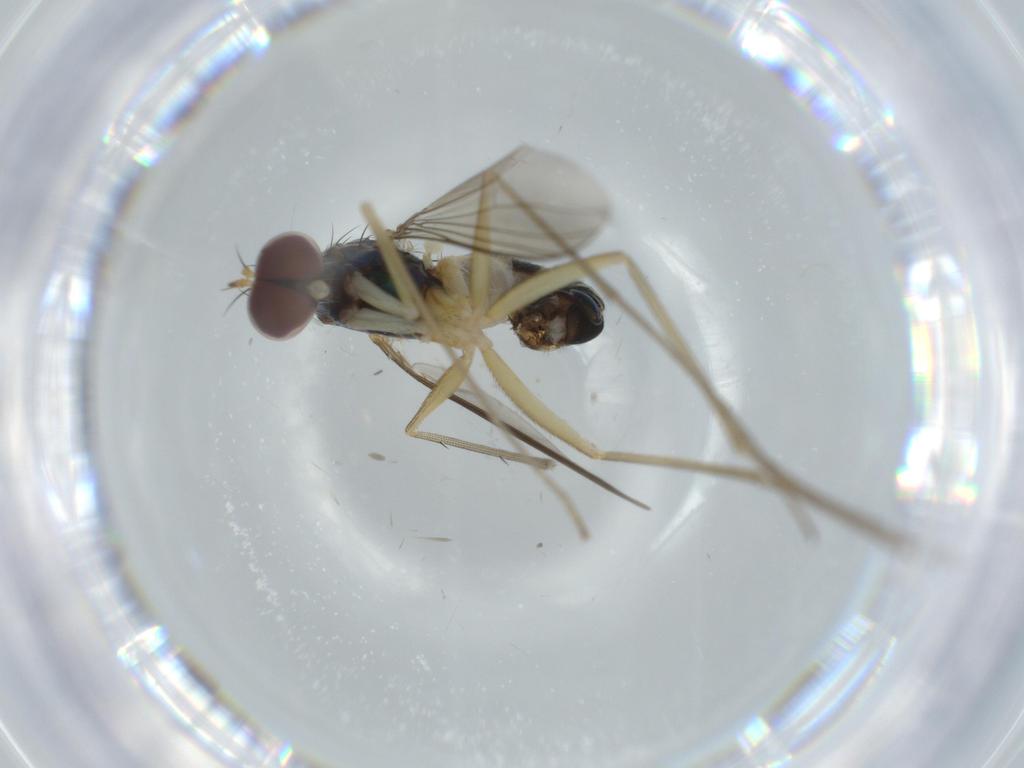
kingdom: Animalia
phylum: Arthropoda
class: Insecta
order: Diptera
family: Dolichopodidae
